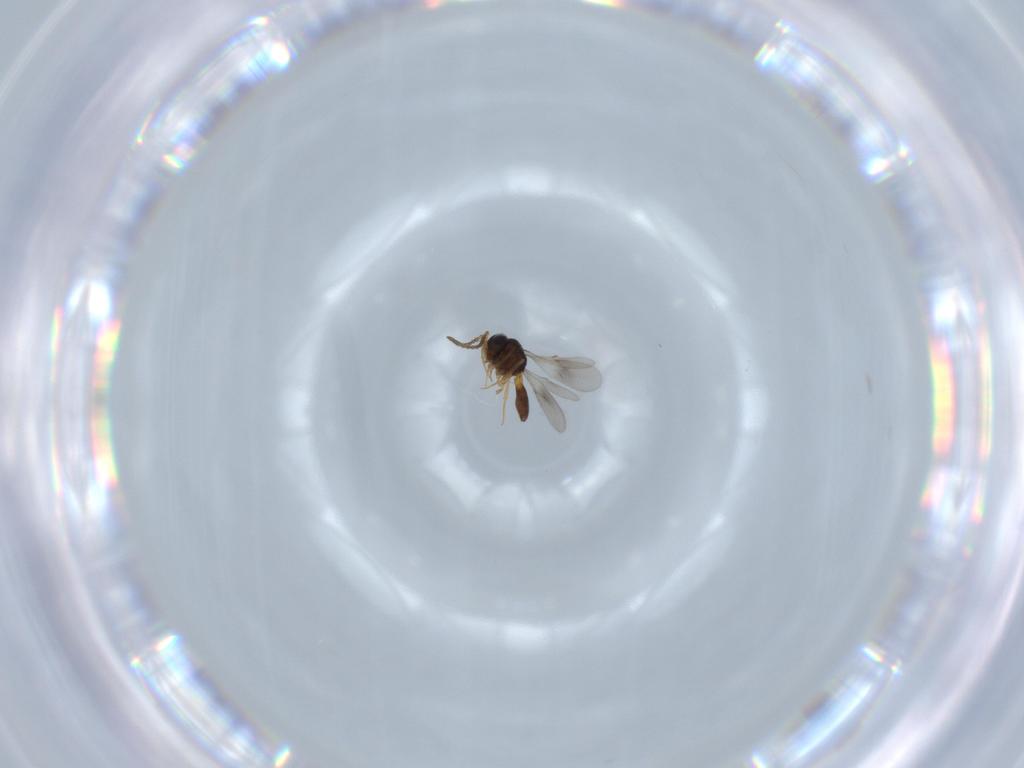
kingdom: Animalia
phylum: Arthropoda
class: Insecta
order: Hymenoptera
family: Scelionidae
